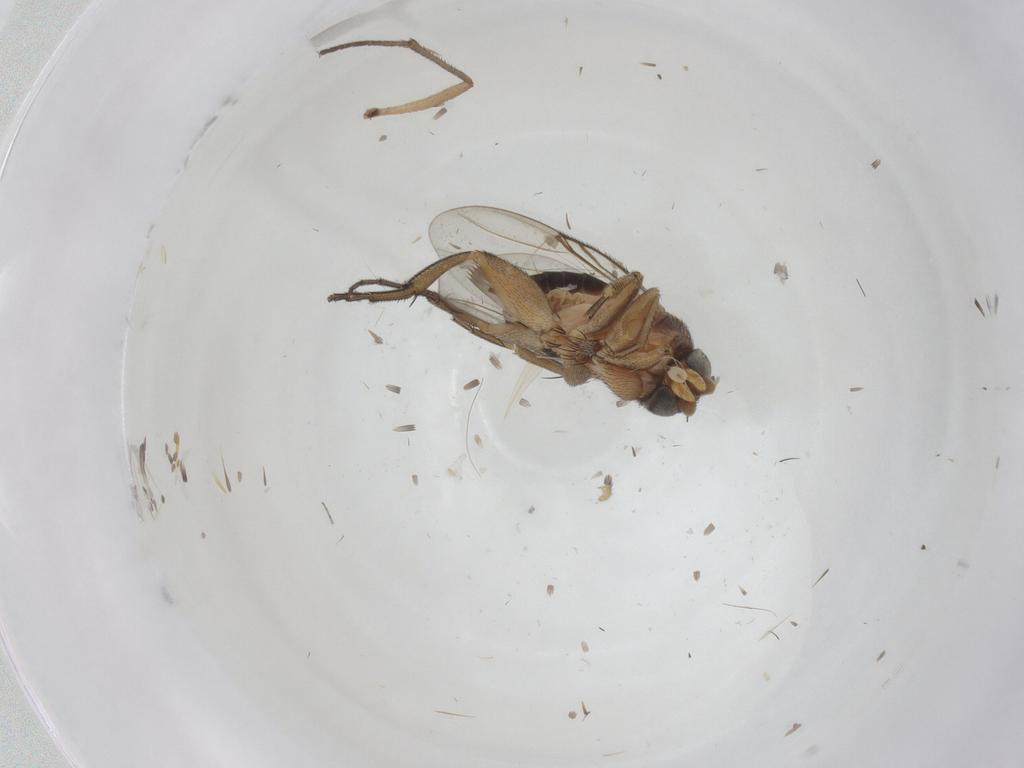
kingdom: Animalia
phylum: Arthropoda
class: Insecta
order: Diptera
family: Phoridae
